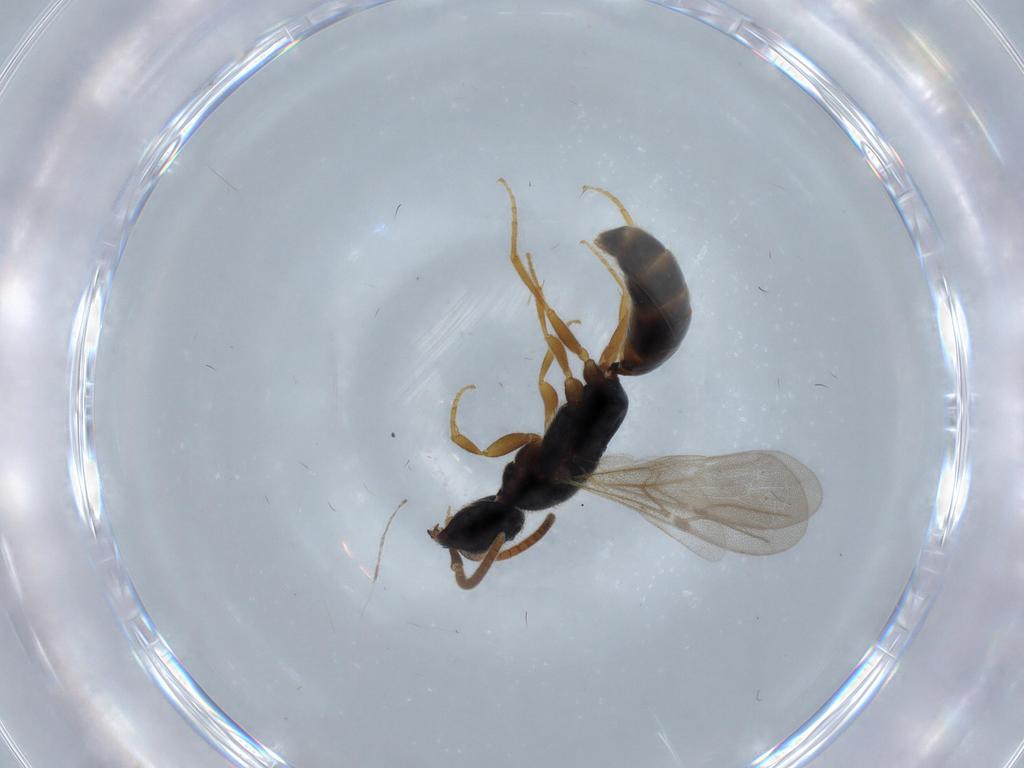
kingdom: Animalia
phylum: Arthropoda
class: Insecta
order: Hymenoptera
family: Bethylidae
